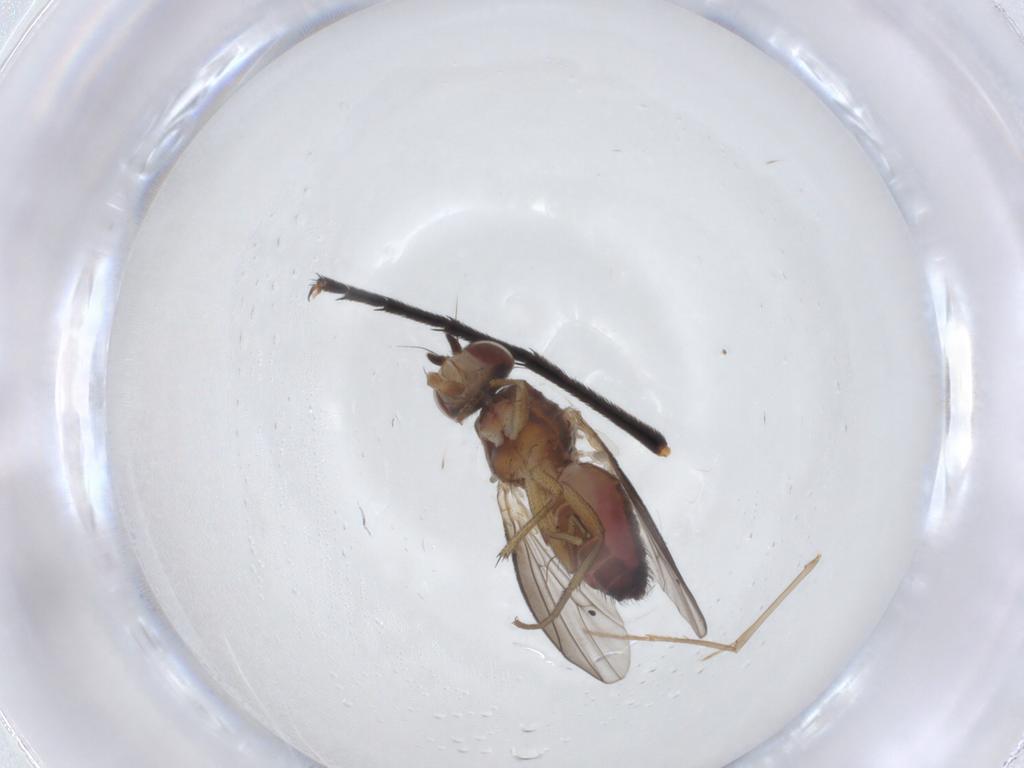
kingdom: Animalia
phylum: Arthropoda
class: Insecta
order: Diptera
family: Heleomyzidae
